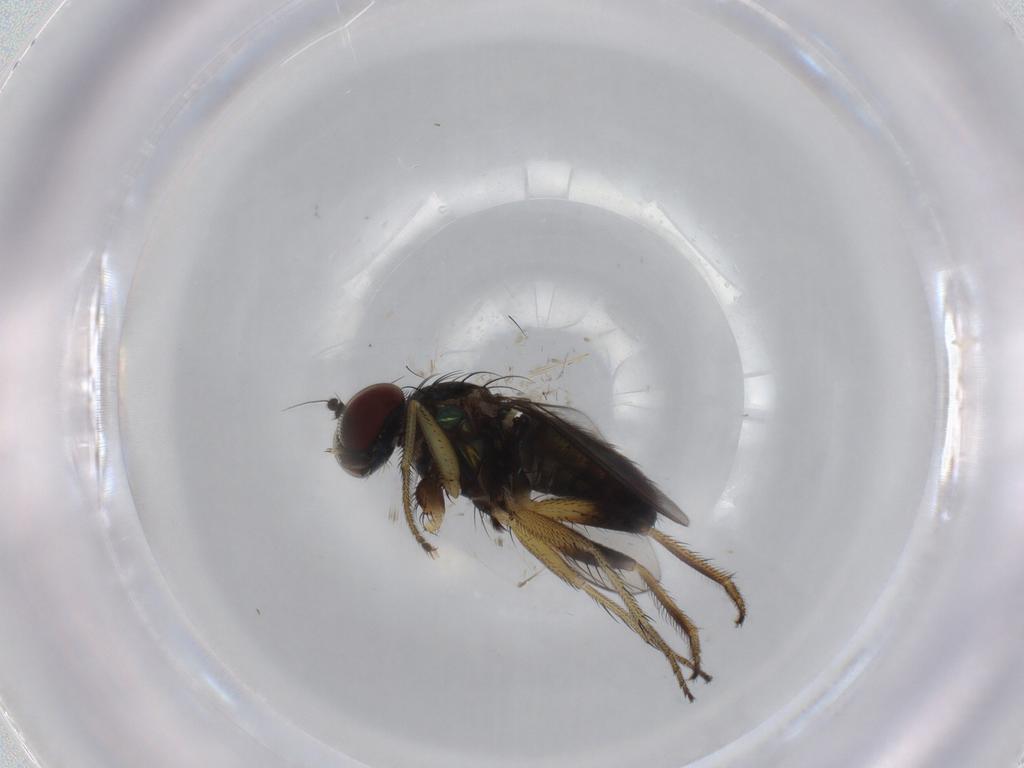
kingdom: Animalia
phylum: Arthropoda
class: Insecta
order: Diptera
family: Dolichopodidae
